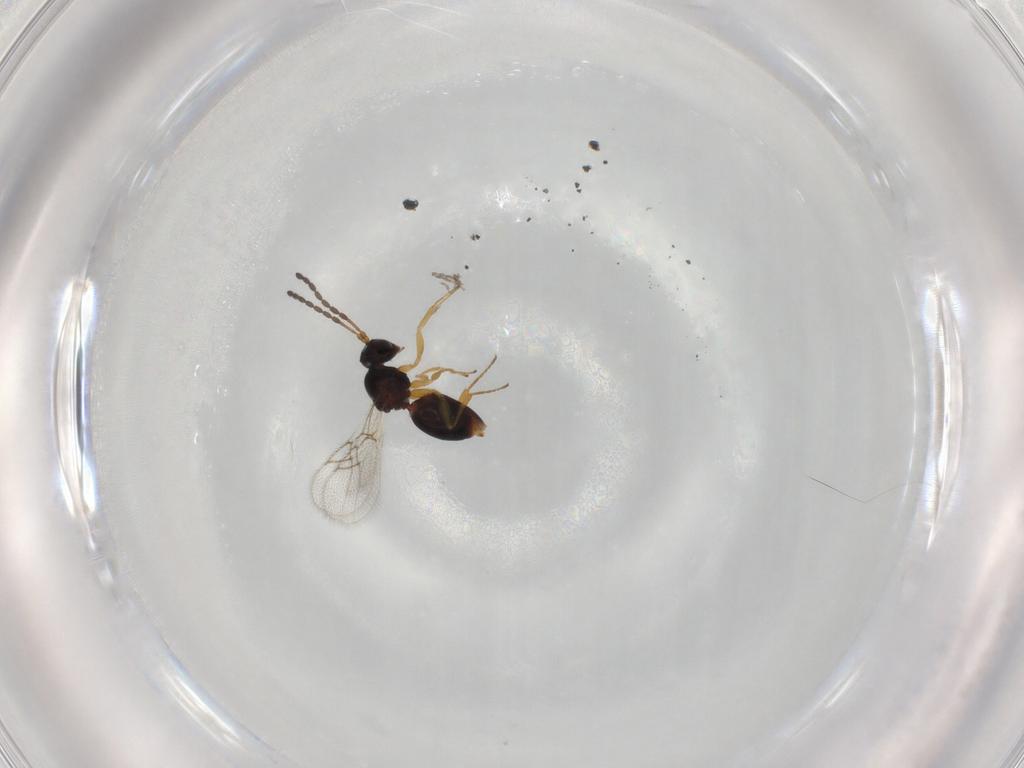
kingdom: Animalia
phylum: Arthropoda
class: Insecta
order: Hymenoptera
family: Figitidae
